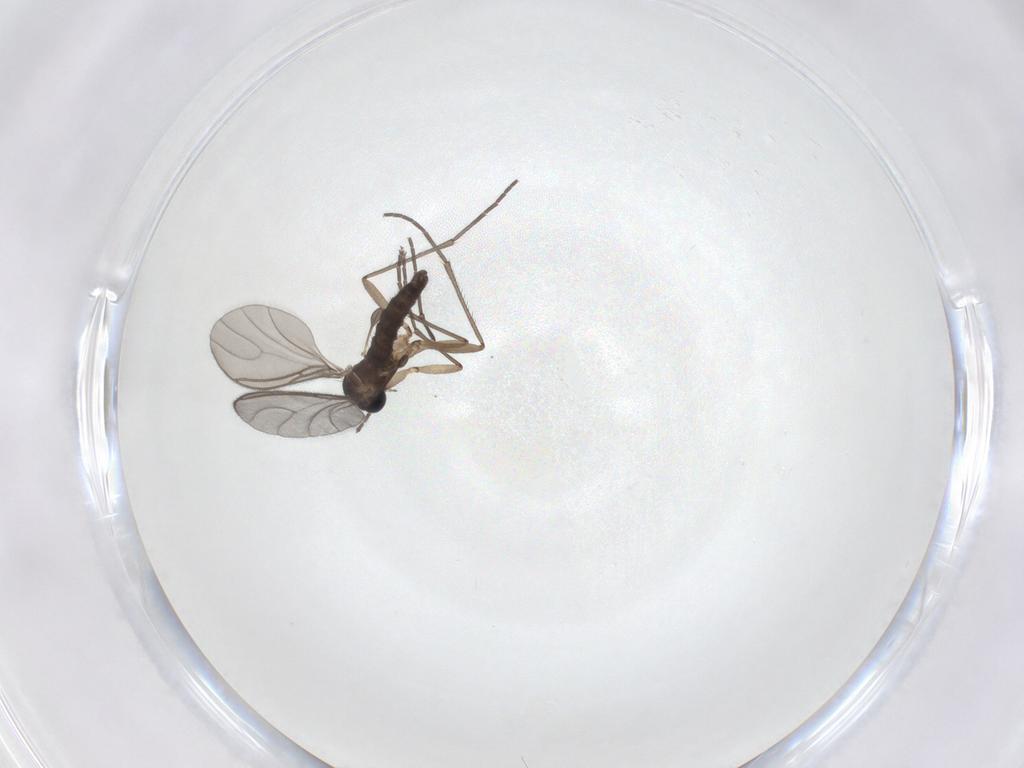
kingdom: Animalia
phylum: Arthropoda
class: Insecta
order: Diptera
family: Sciaridae
